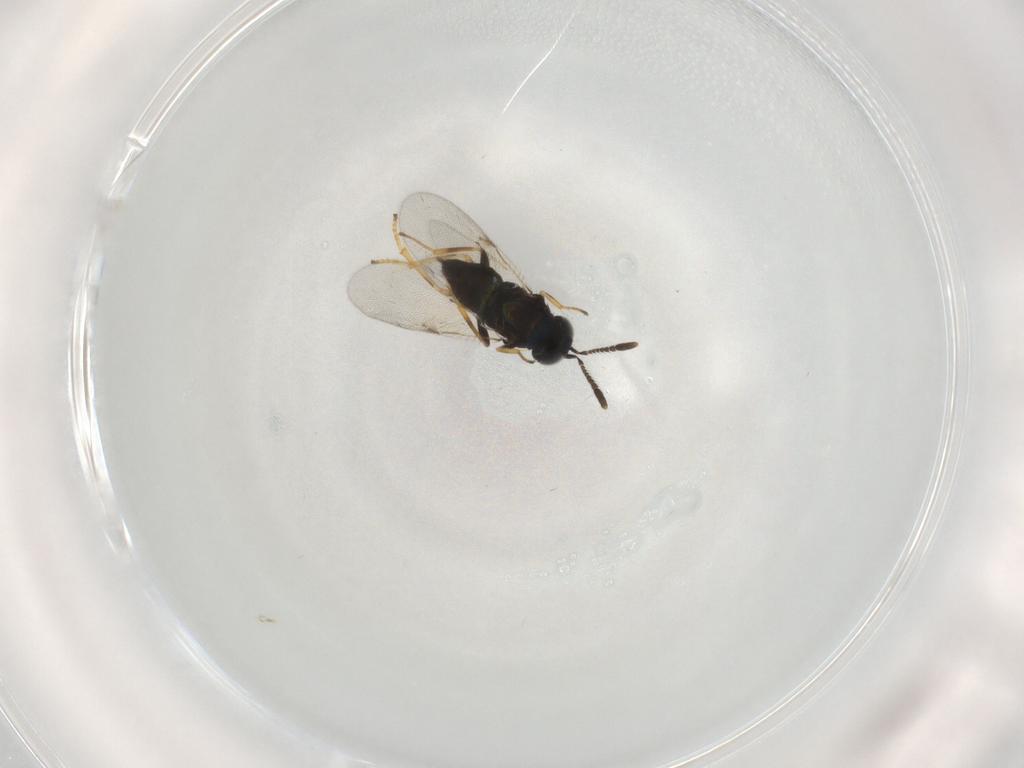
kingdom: Animalia
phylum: Arthropoda
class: Insecta
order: Hymenoptera
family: Encyrtidae
